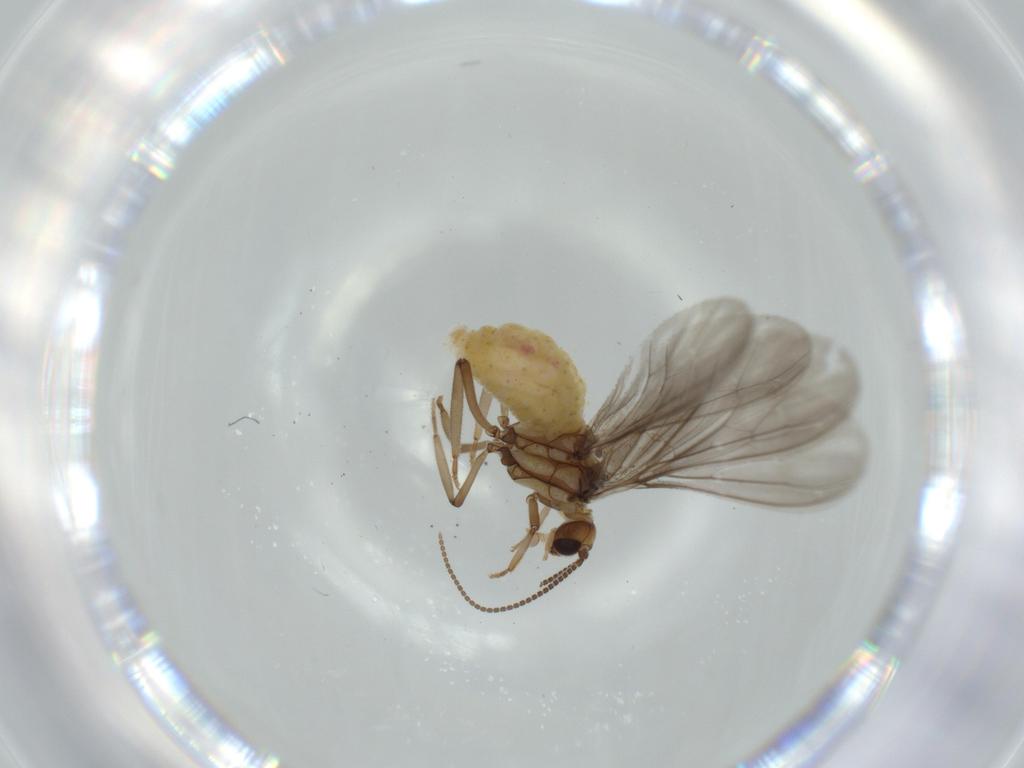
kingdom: Animalia
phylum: Arthropoda
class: Insecta
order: Neuroptera
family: Coniopterygidae
